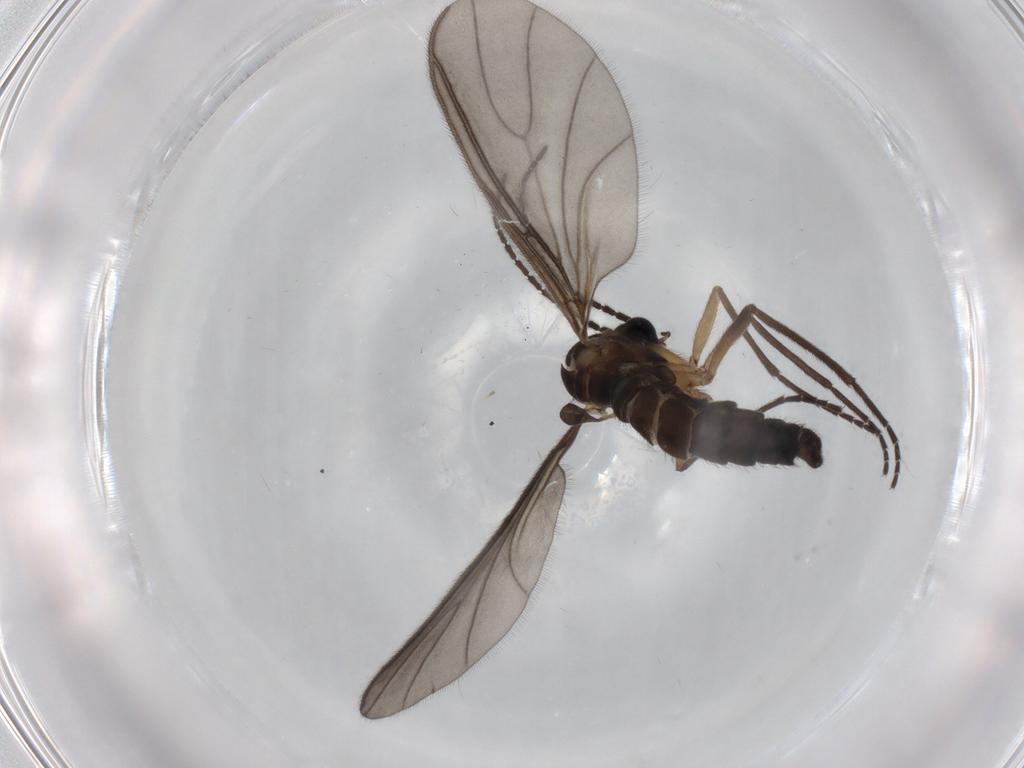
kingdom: Animalia
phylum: Arthropoda
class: Insecta
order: Diptera
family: Sciaridae
